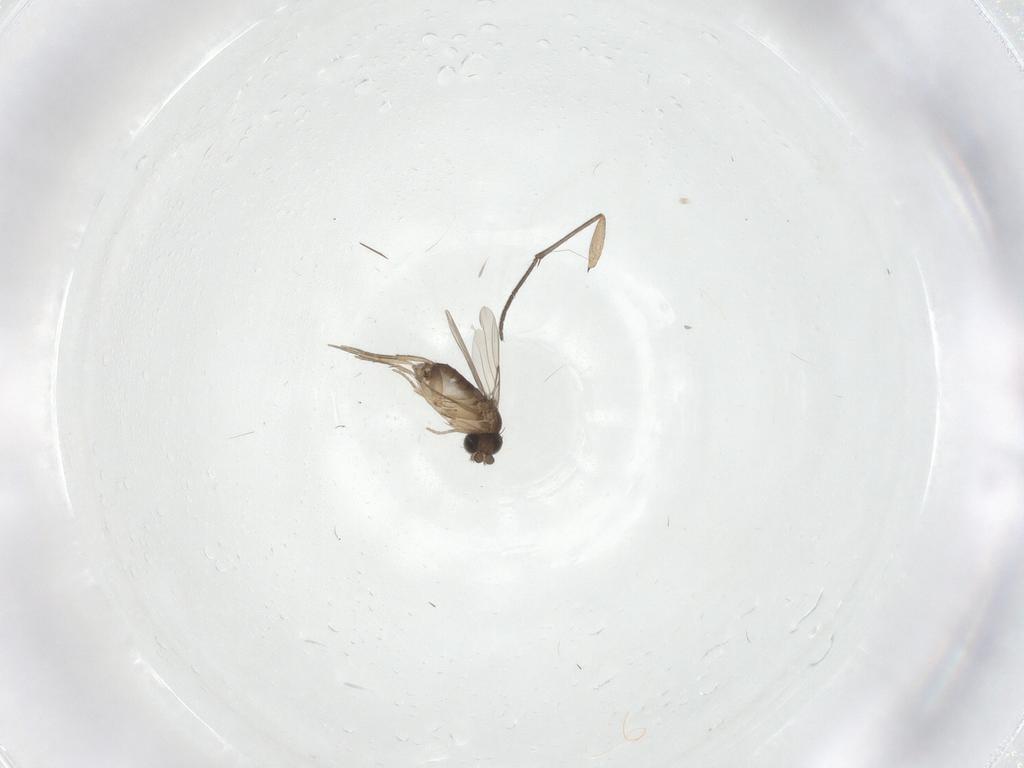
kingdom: Animalia
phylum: Arthropoda
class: Insecta
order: Diptera
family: Sciaridae
